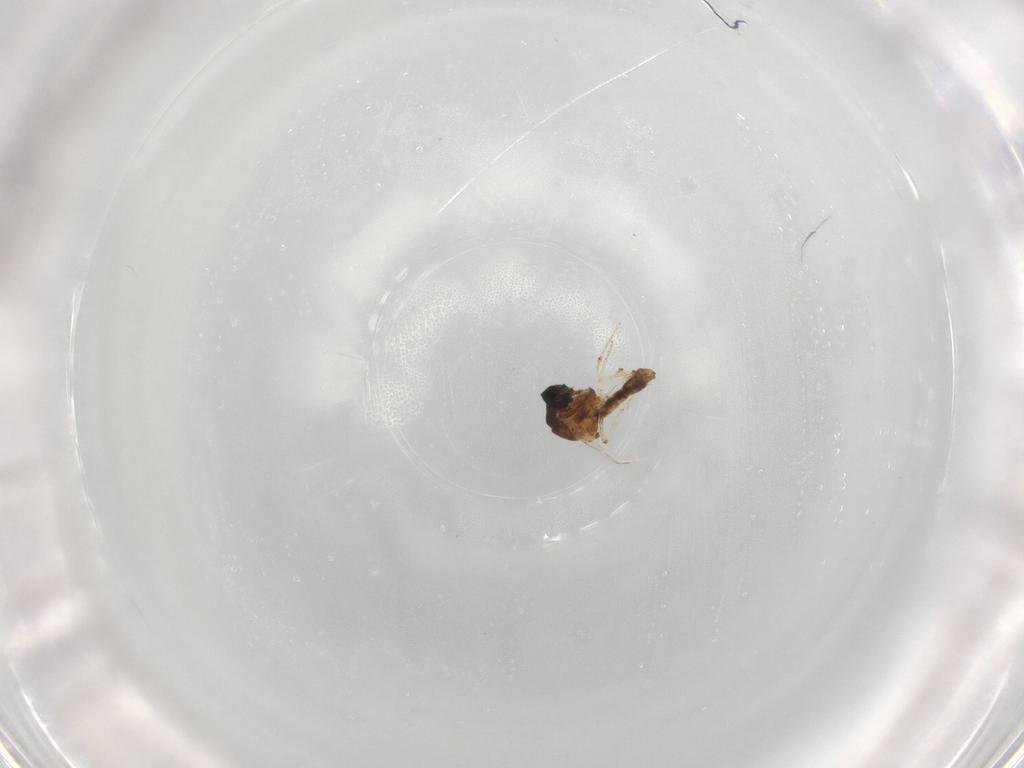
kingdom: Animalia
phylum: Arthropoda
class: Insecta
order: Diptera
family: Ceratopogonidae
